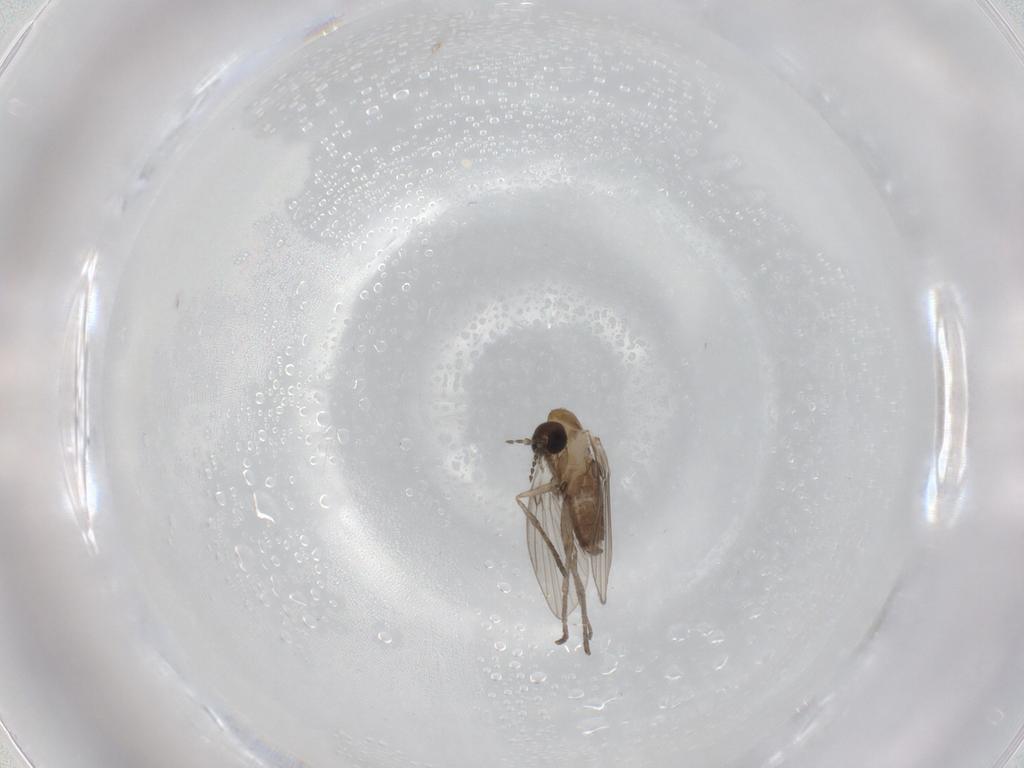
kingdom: Animalia
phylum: Arthropoda
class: Insecta
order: Diptera
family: Psychodidae
